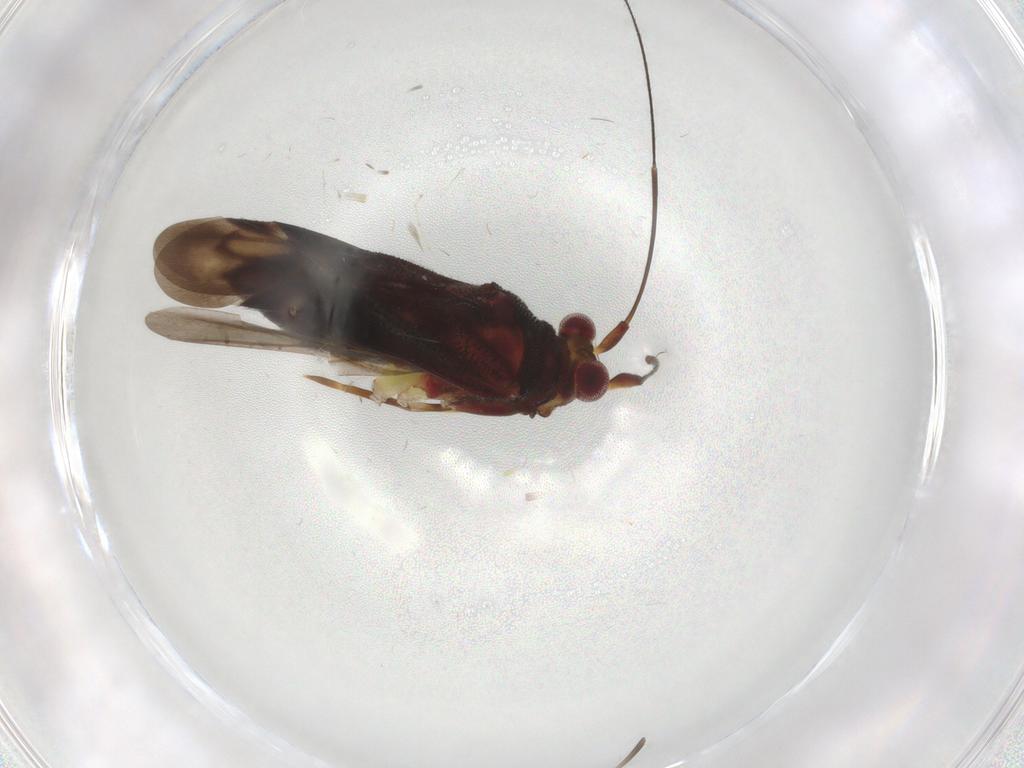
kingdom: Animalia
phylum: Arthropoda
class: Insecta
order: Hemiptera
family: Miridae
